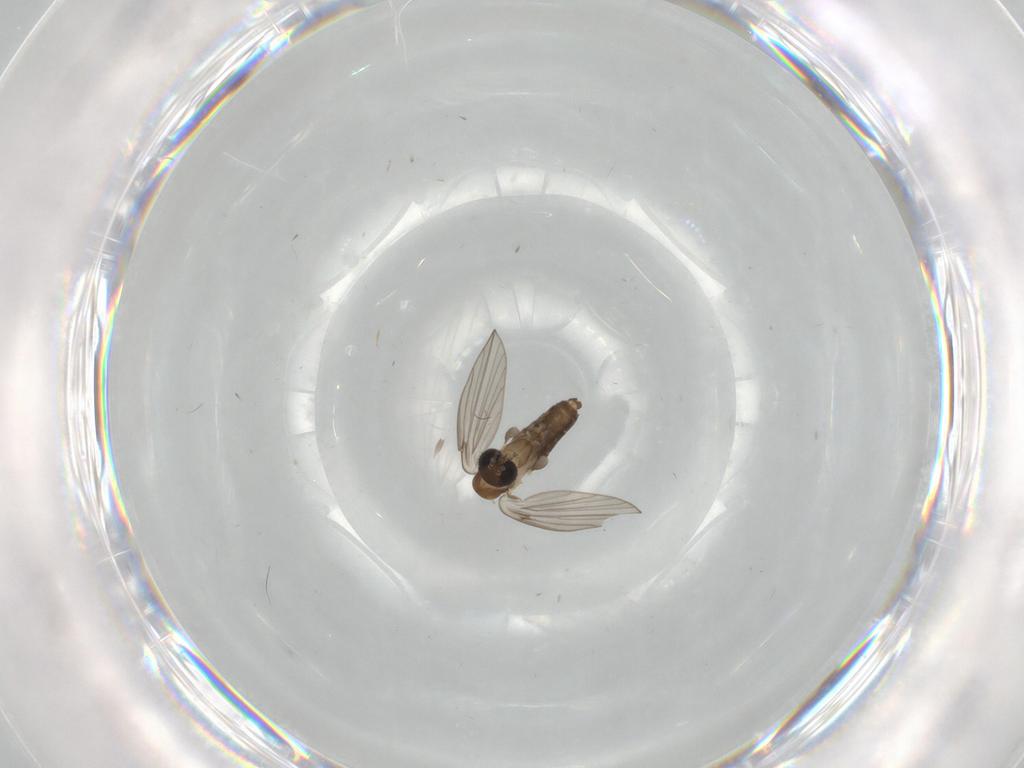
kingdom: Animalia
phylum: Arthropoda
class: Insecta
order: Diptera
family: Psychodidae
